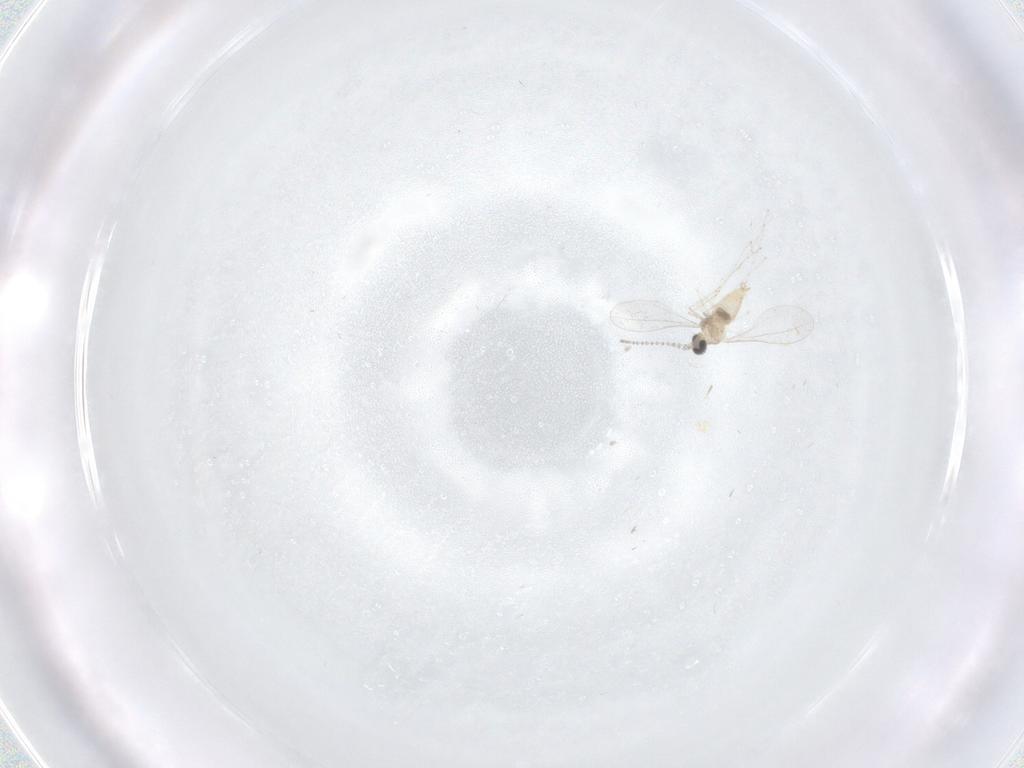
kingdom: Animalia
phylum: Arthropoda
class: Insecta
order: Diptera
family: Cecidomyiidae
